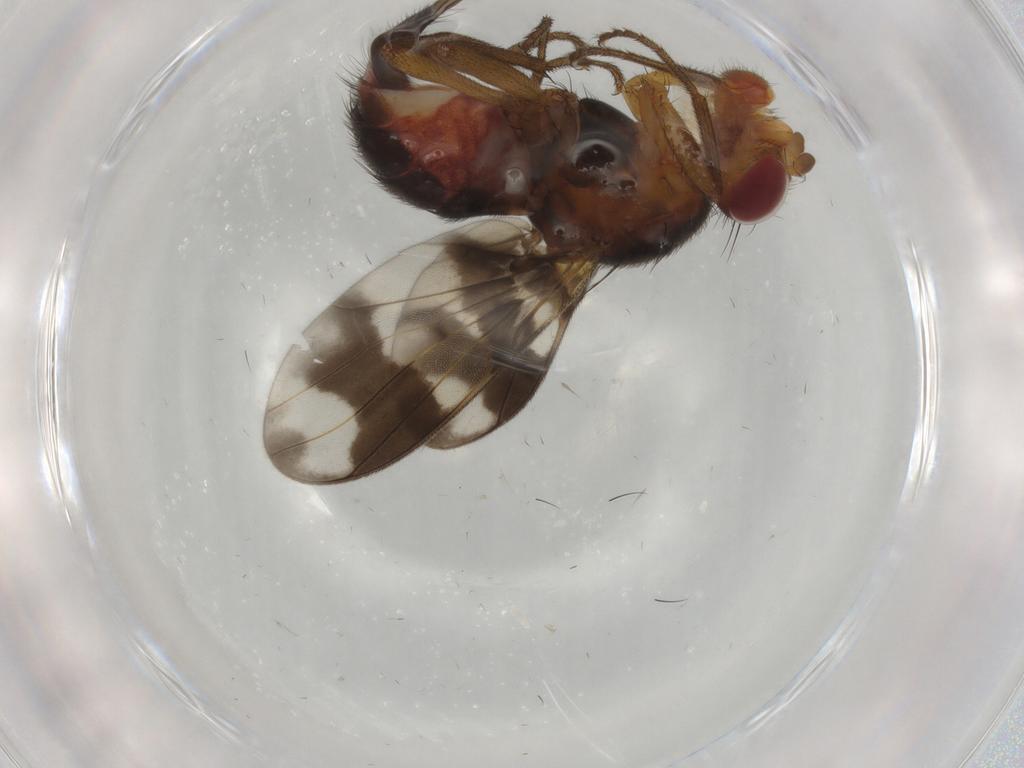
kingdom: Animalia
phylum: Arthropoda
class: Insecta
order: Diptera
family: Richardiidae
